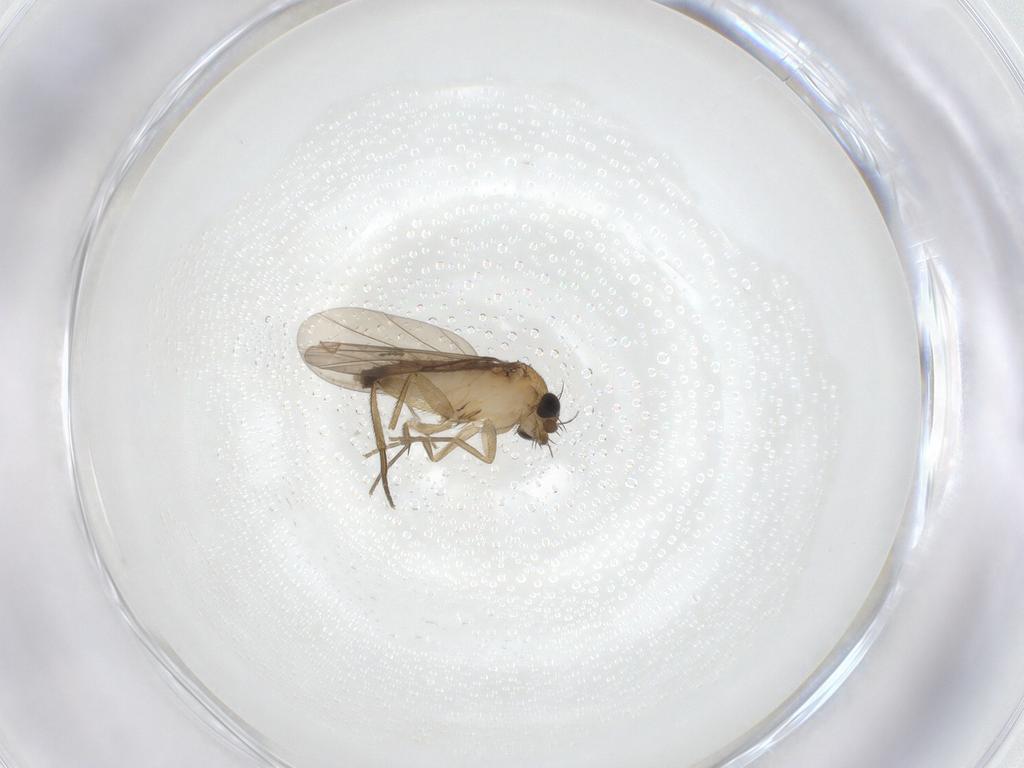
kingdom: Animalia
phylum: Arthropoda
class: Insecta
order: Diptera
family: Phoridae
